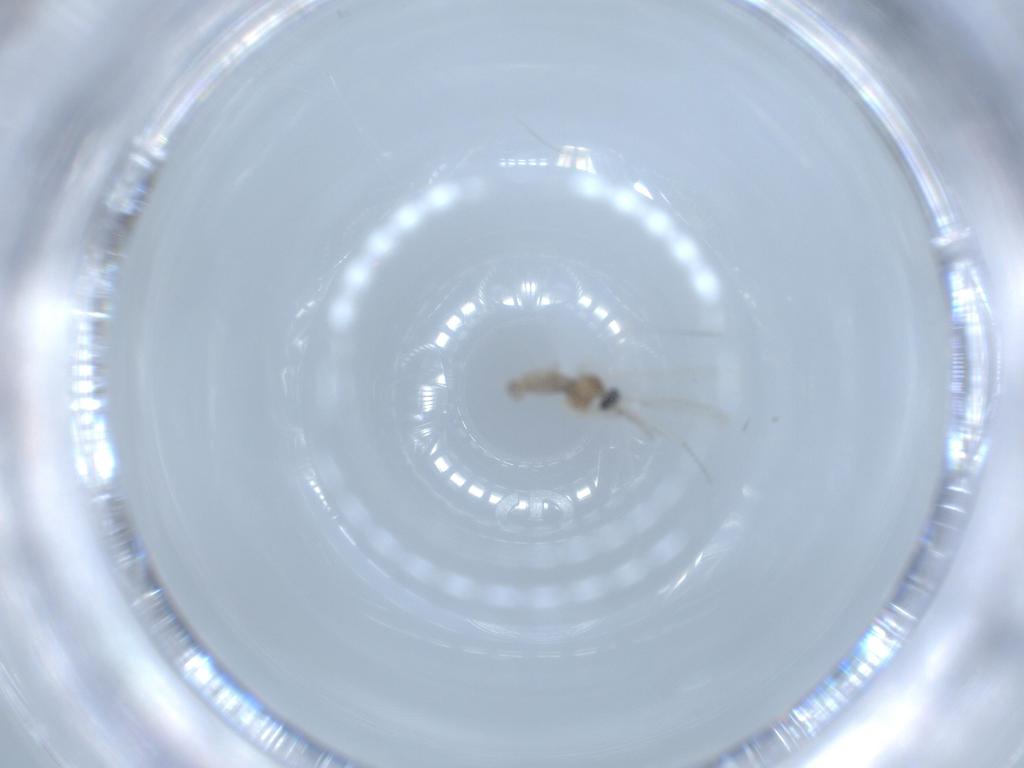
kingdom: Animalia
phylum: Arthropoda
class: Insecta
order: Diptera
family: Cecidomyiidae
